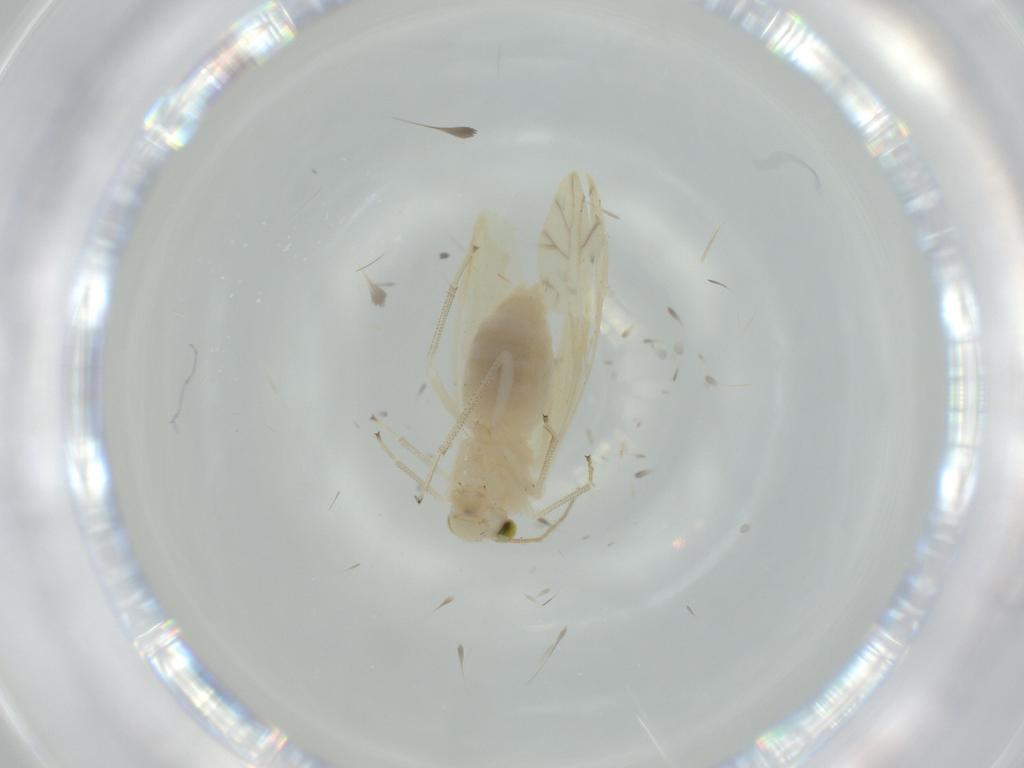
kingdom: Animalia
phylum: Arthropoda
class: Insecta
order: Psocodea
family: Caeciliusidae
